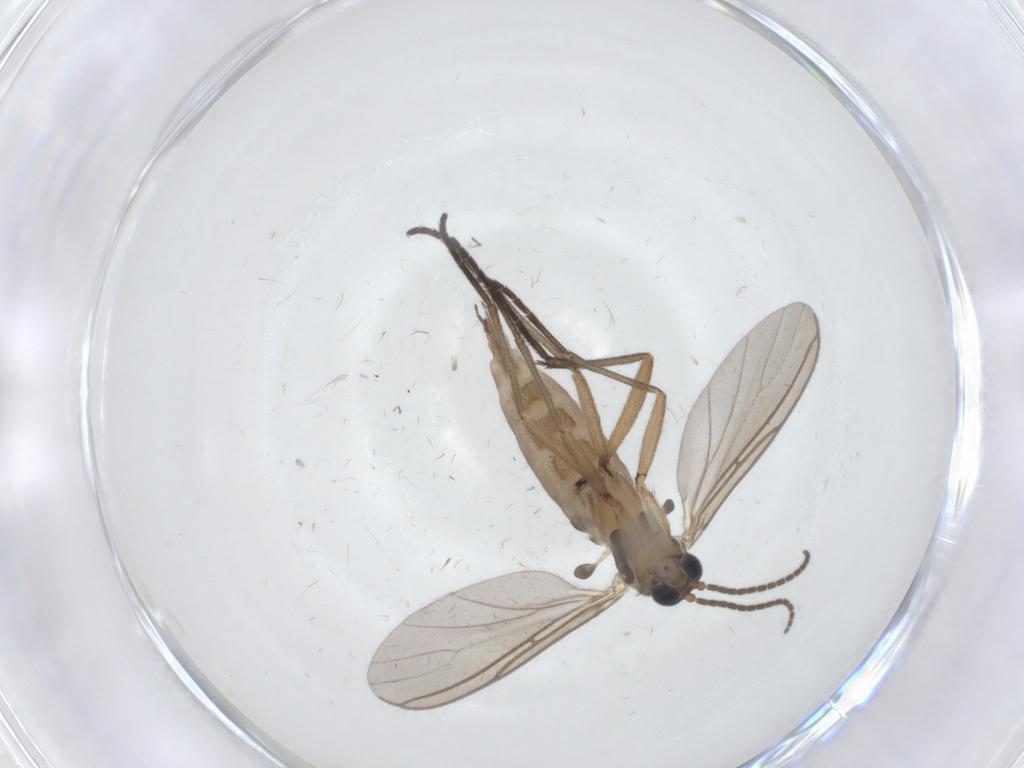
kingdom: Animalia
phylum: Arthropoda
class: Insecta
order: Diptera
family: Sciaridae
